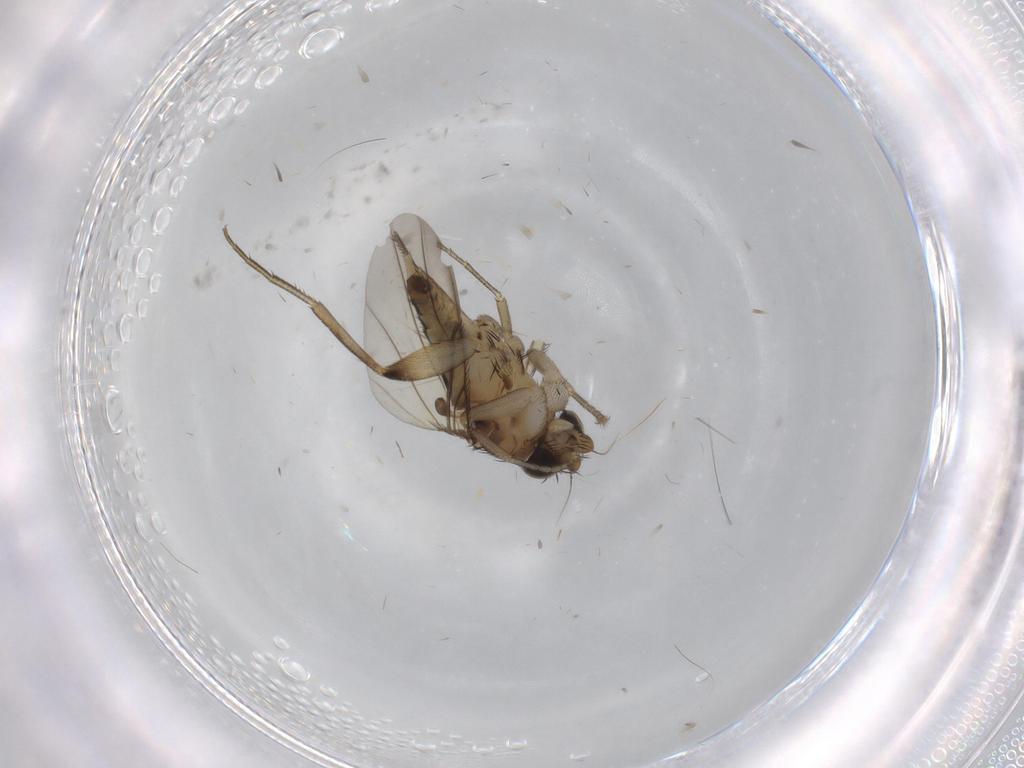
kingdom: Animalia
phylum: Arthropoda
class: Insecta
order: Diptera
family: Phoridae
